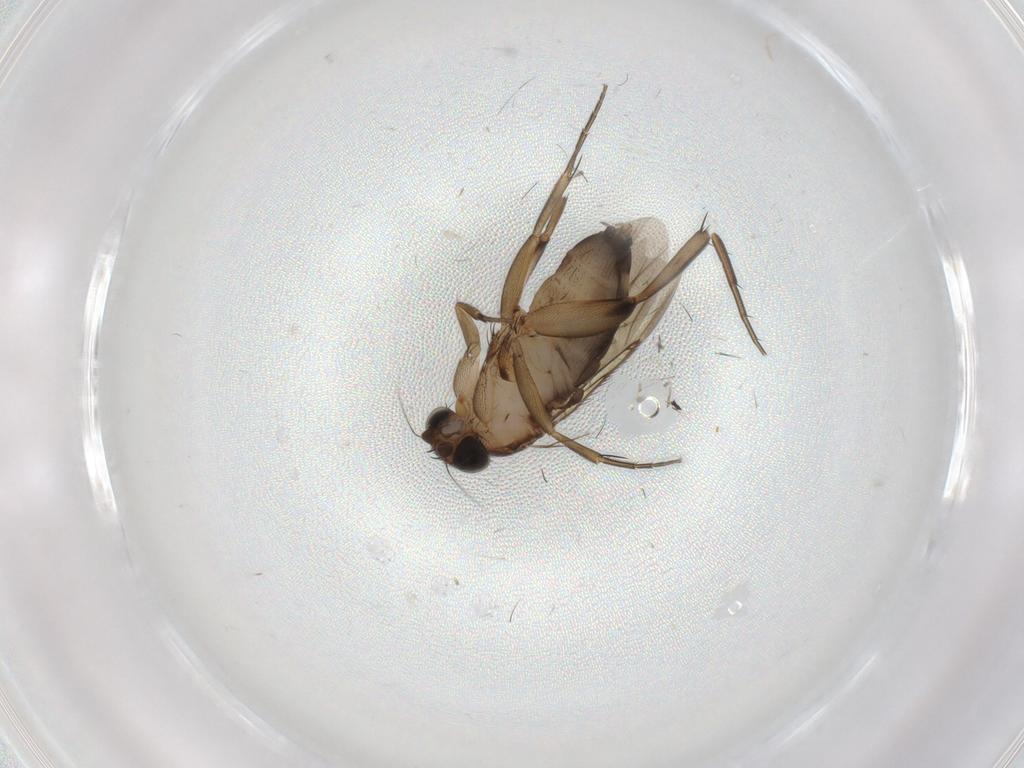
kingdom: Animalia
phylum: Arthropoda
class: Insecta
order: Diptera
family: Phoridae
